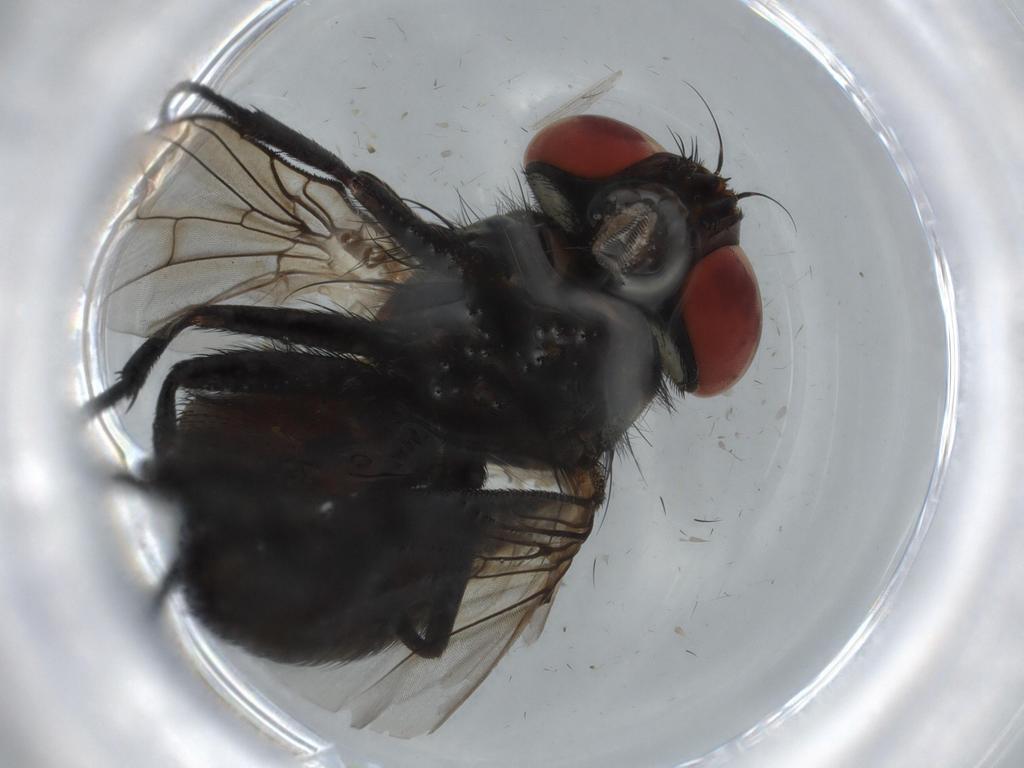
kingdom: Animalia
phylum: Arthropoda
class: Insecta
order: Diptera
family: Psychodidae
